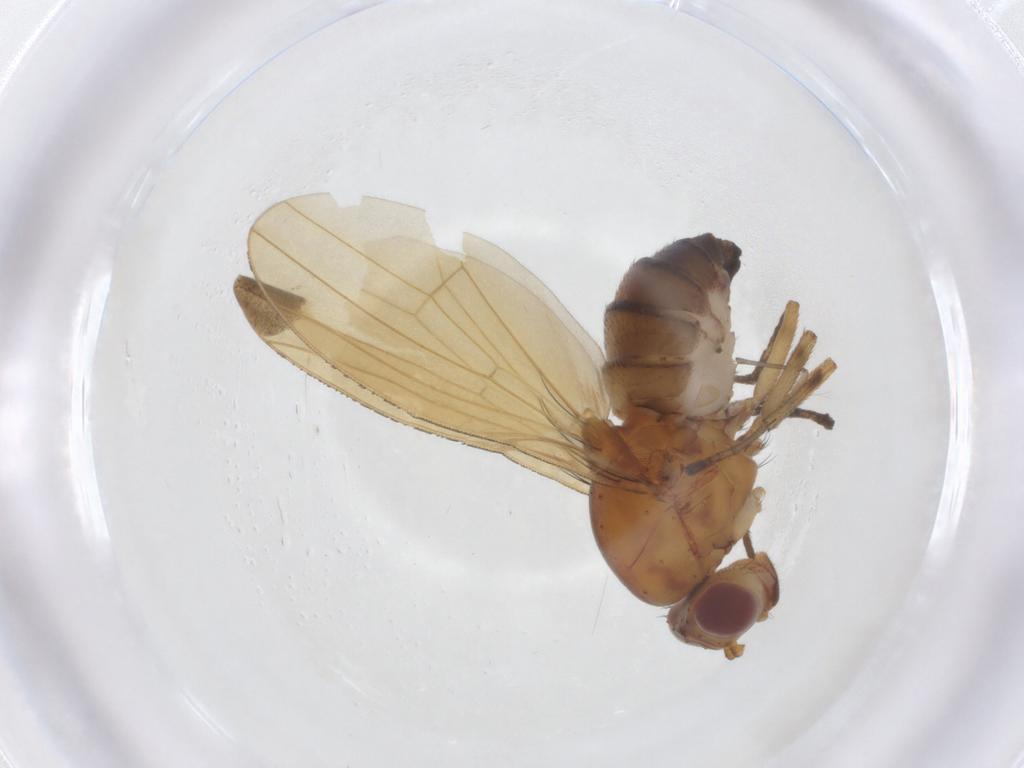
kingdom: Animalia
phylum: Arthropoda
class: Insecta
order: Diptera
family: Lauxaniidae
